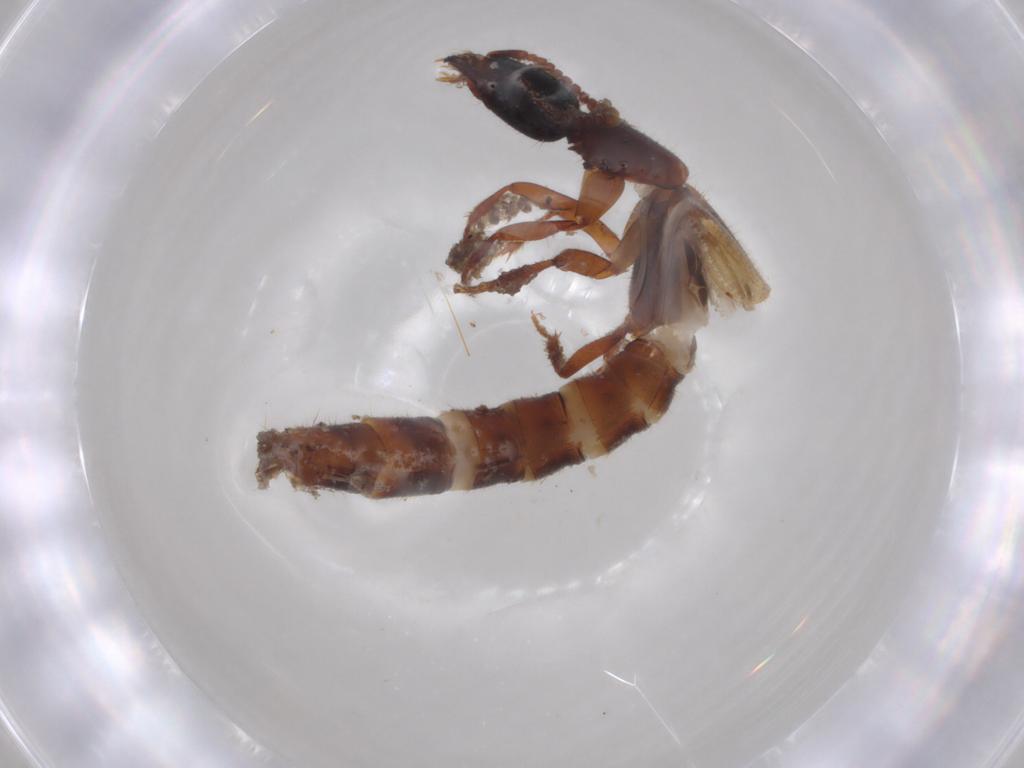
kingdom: Animalia
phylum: Arthropoda
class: Insecta
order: Coleoptera
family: Staphylinidae
